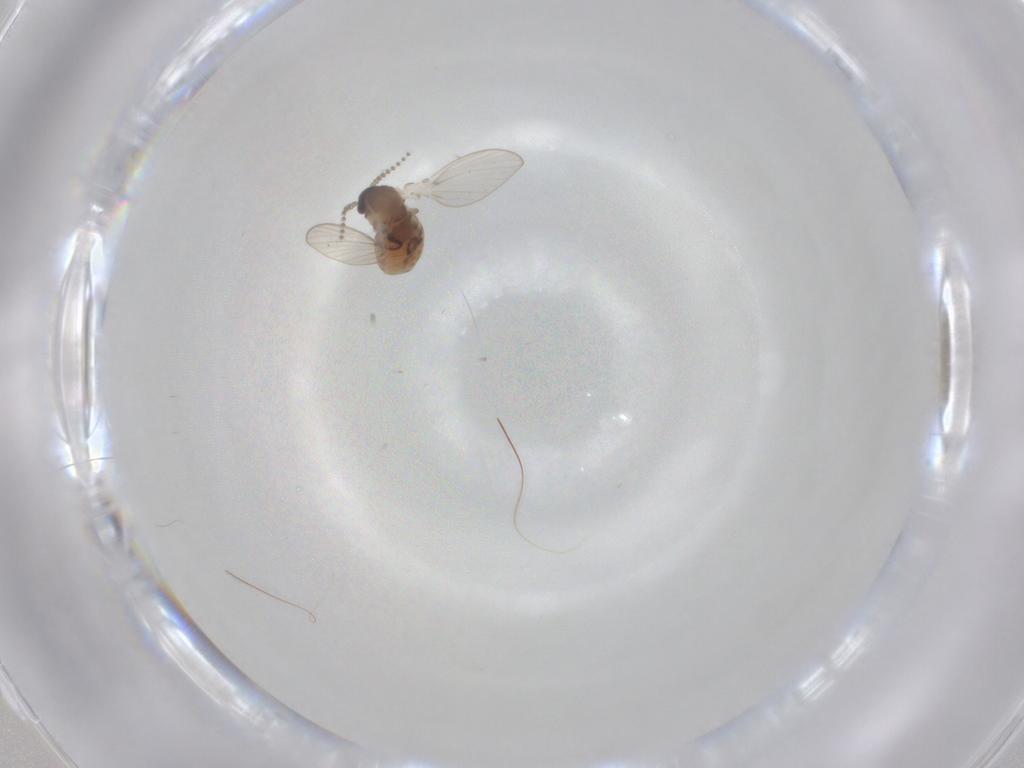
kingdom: Animalia
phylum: Arthropoda
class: Insecta
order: Diptera
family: Psychodidae
